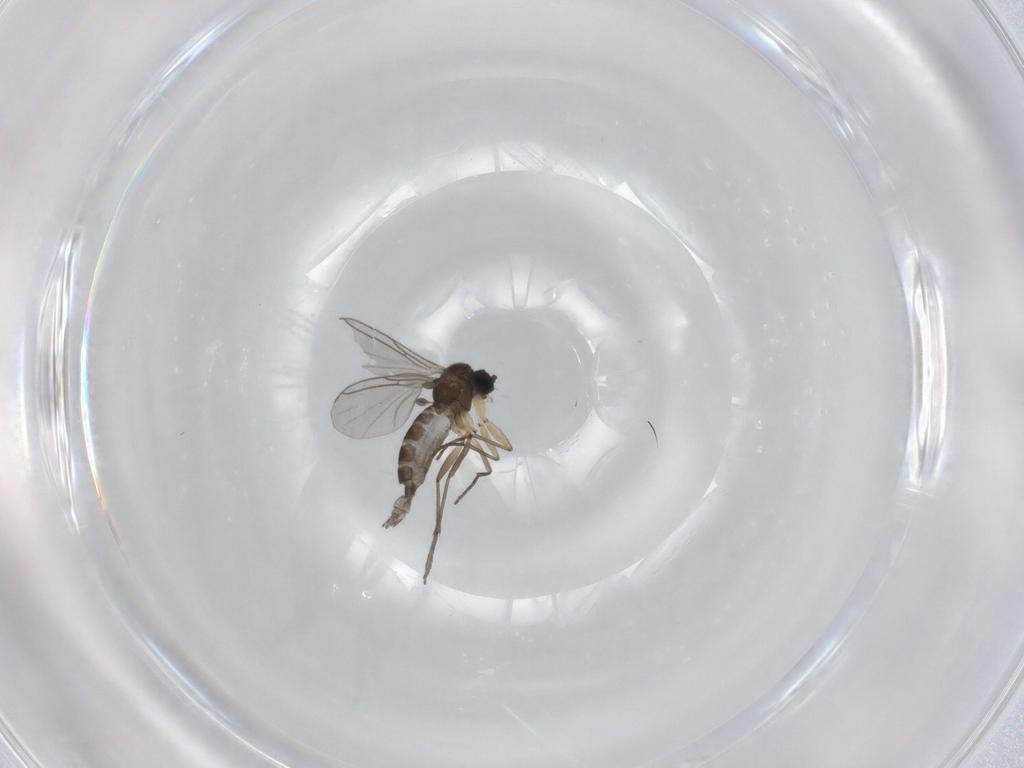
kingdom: Animalia
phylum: Arthropoda
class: Insecta
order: Diptera
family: Sciaridae
